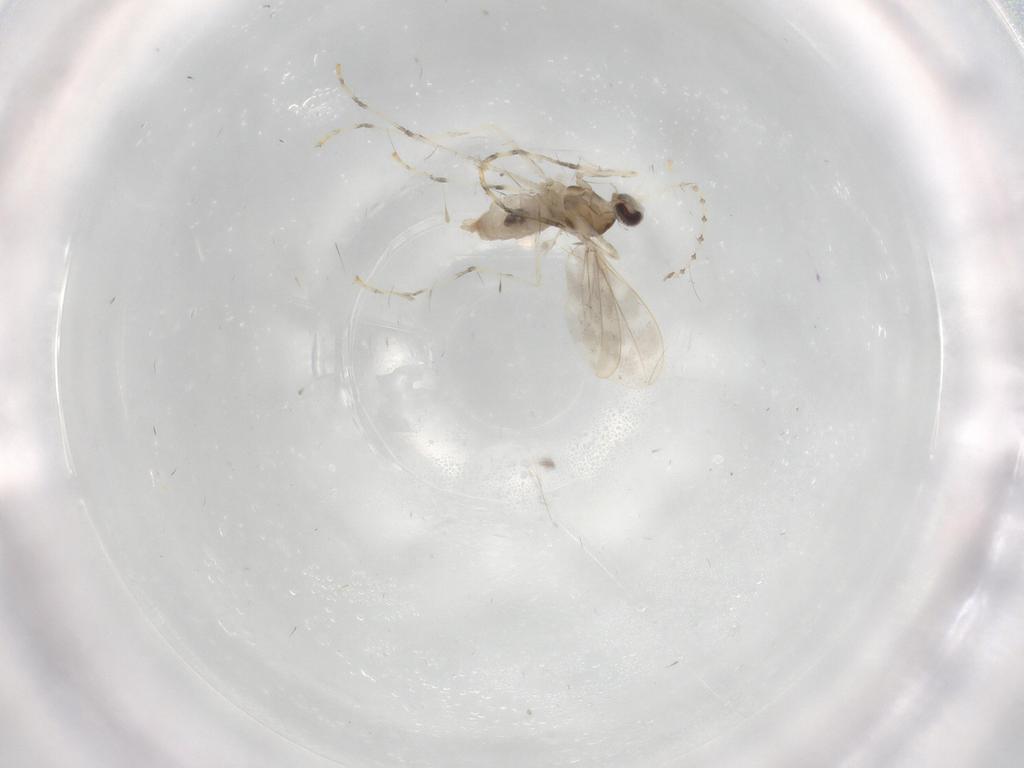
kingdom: Animalia
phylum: Arthropoda
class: Insecta
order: Diptera
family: Cecidomyiidae
